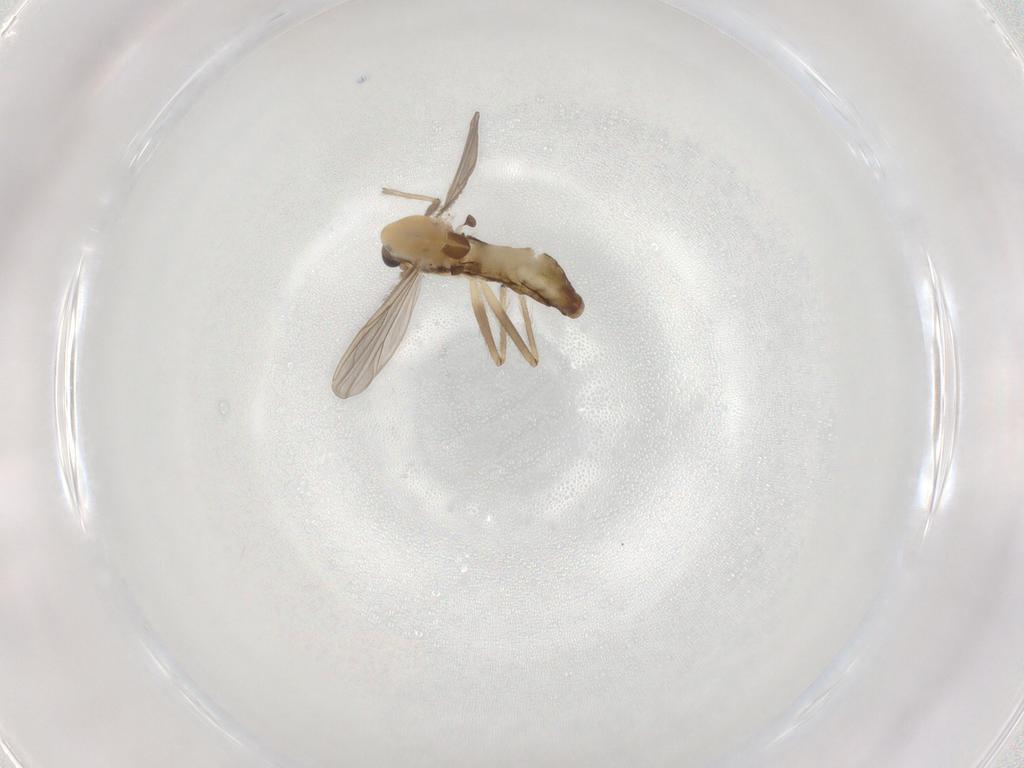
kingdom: Animalia
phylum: Arthropoda
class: Insecta
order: Diptera
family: Chironomidae
